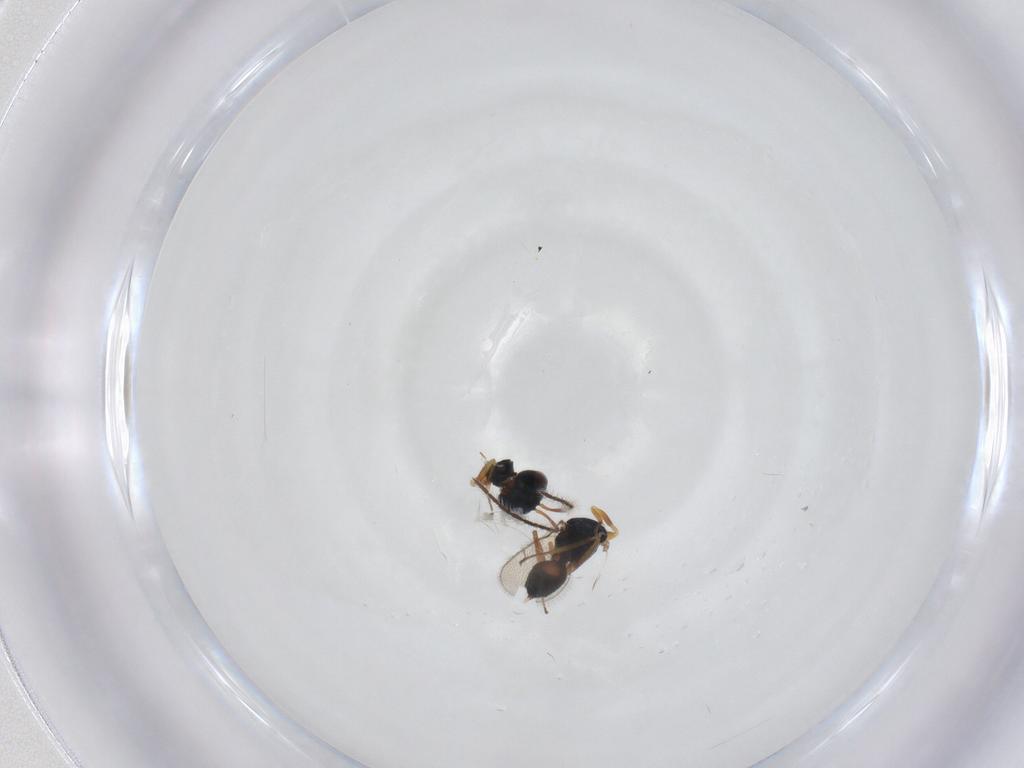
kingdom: Animalia
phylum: Arthropoda
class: Insecta
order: Hymenoptera
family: Pteromalidae
